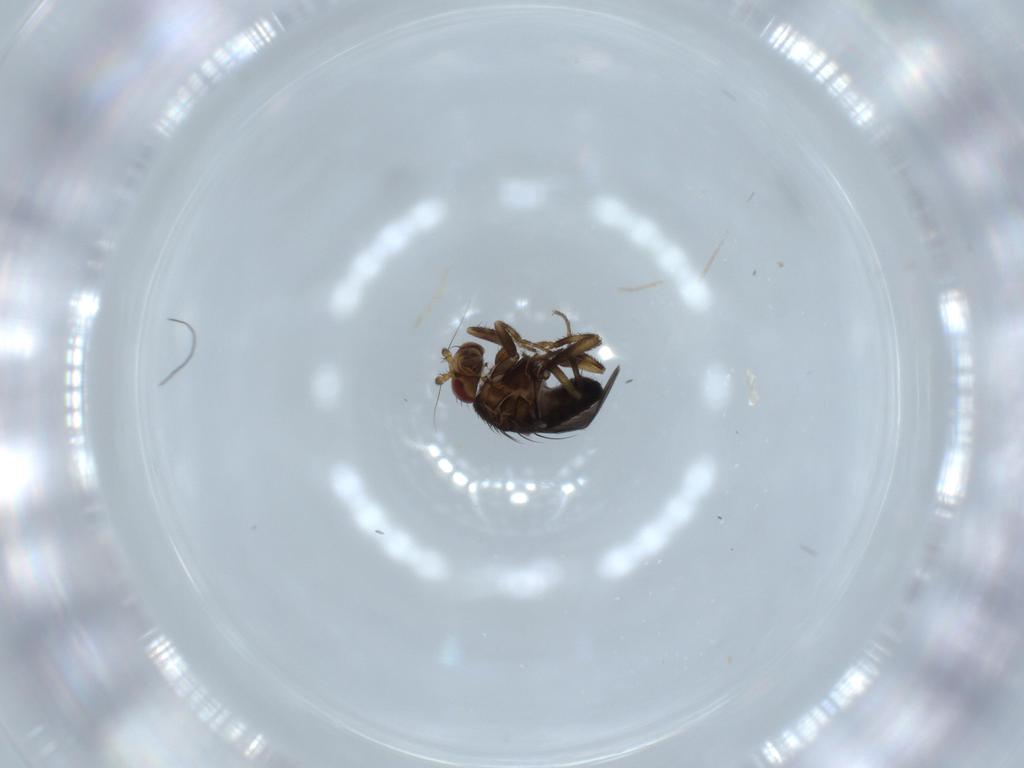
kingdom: Animalia
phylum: Arthropoda
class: Insecta
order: Diptera
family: Sphaeroceridae
